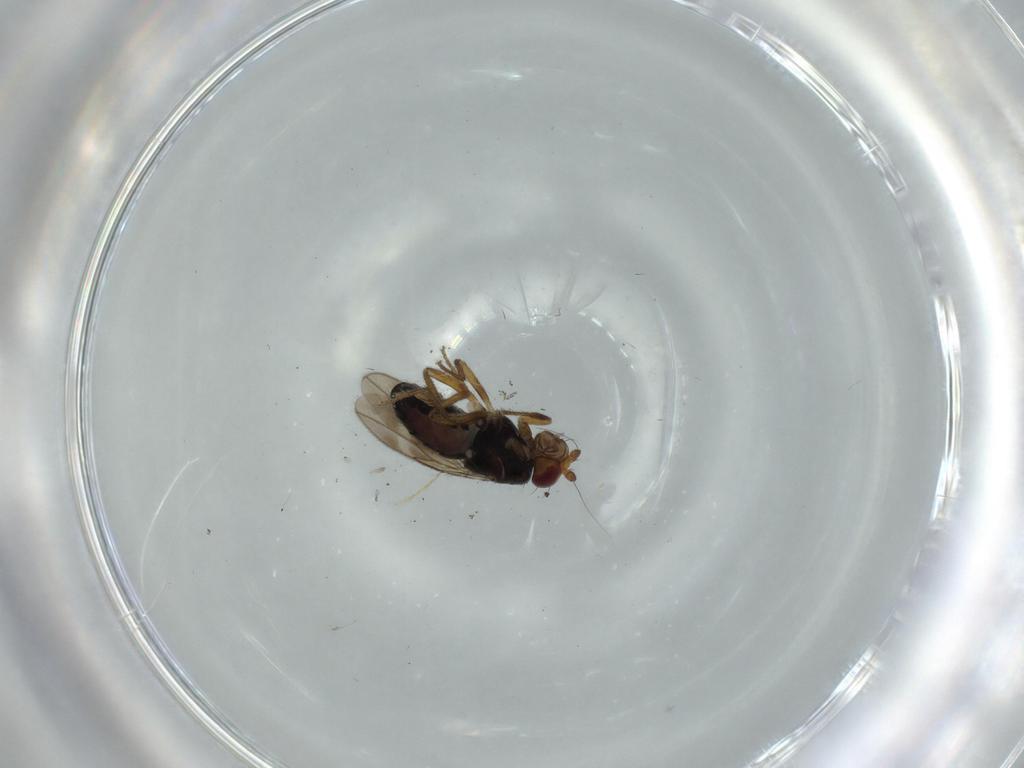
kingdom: Animalia
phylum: Arthropoda
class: Insecta
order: Diptera
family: Sphaeroceridae
